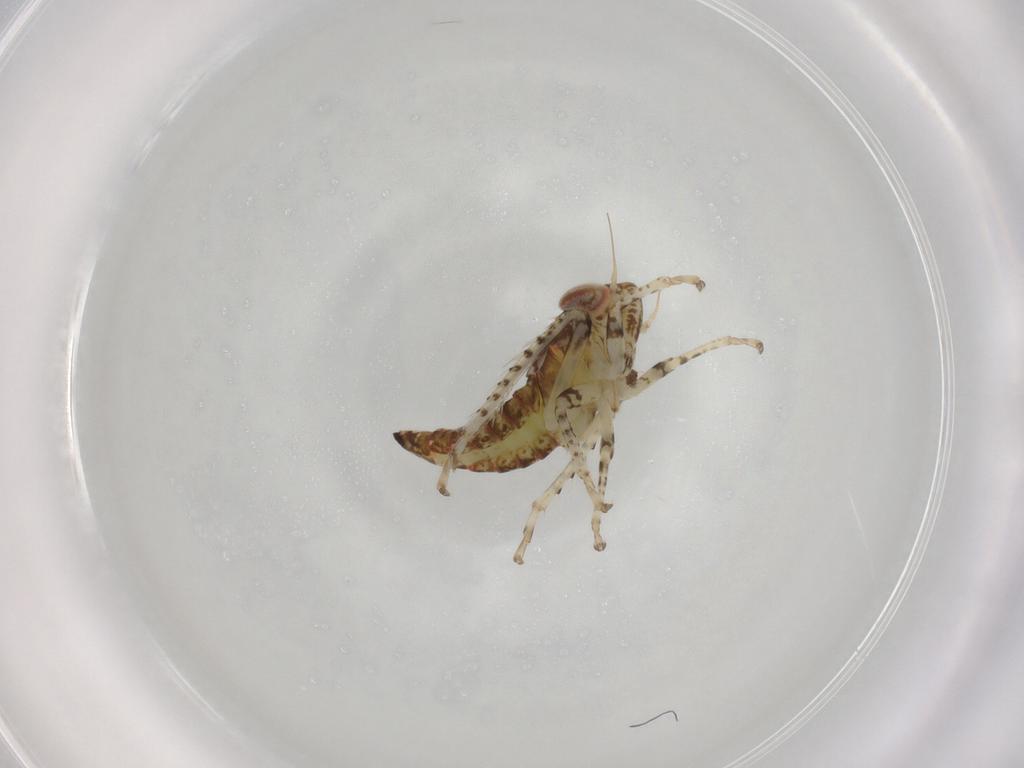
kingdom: Animalia
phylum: Arthropoda
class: Insecta
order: Hemiptera
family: Cicadellidae
